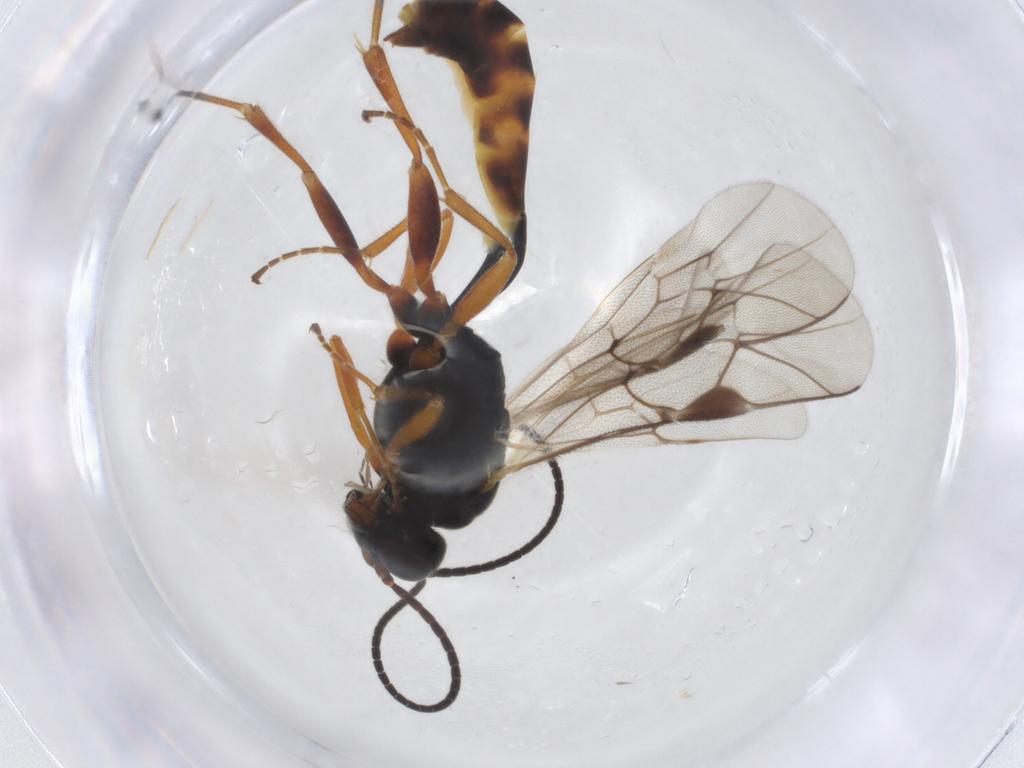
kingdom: Animalia
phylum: Arthropoda
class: Insecta
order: Hymenoptera
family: Ichneumonidae
